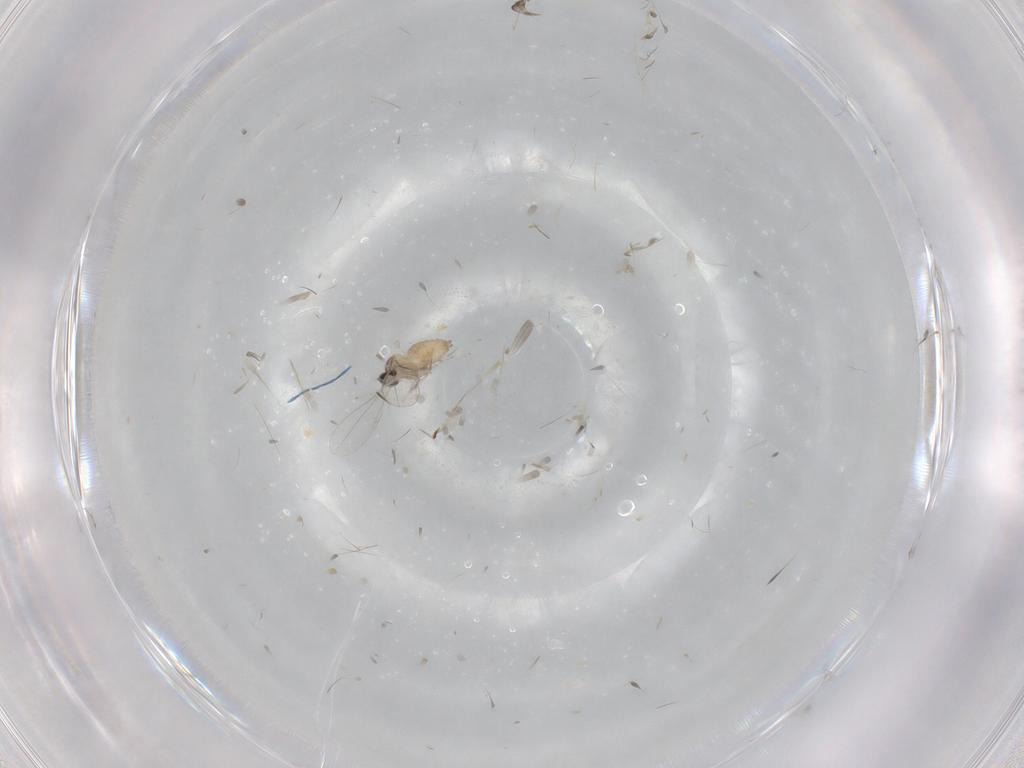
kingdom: Animalia
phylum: Arthropoda
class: Insecta
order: Diptera
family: Cecidomyiidae
